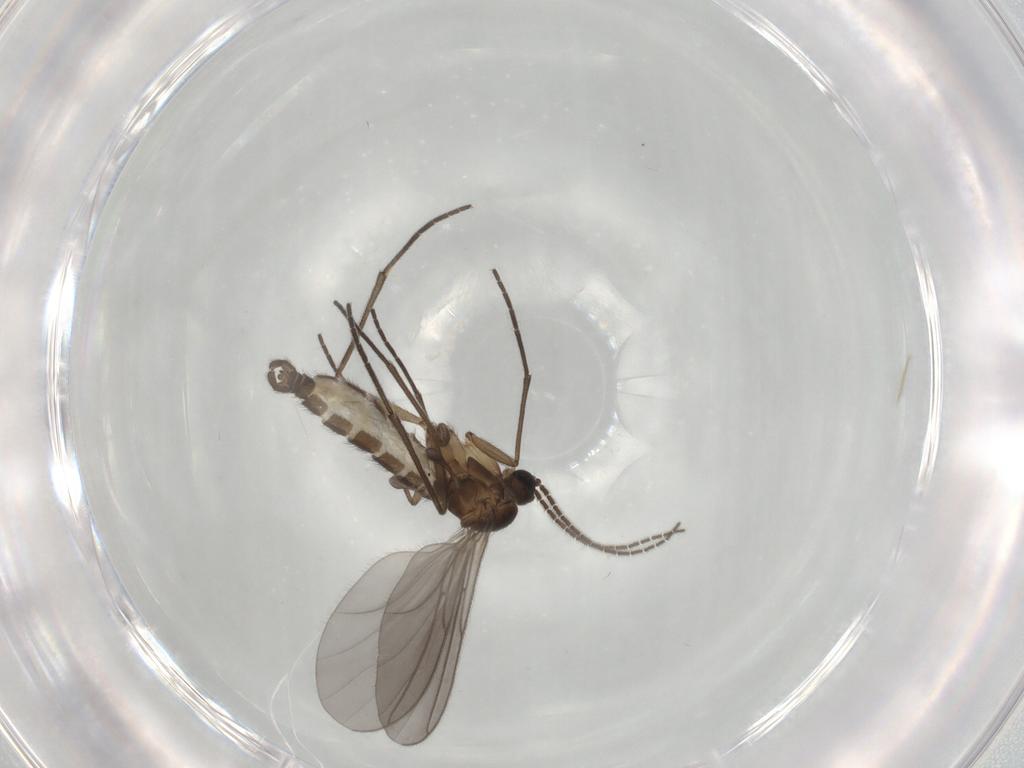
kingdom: Animalia
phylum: Arthropoda
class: Insecta
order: Diptera
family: Sciaridae
